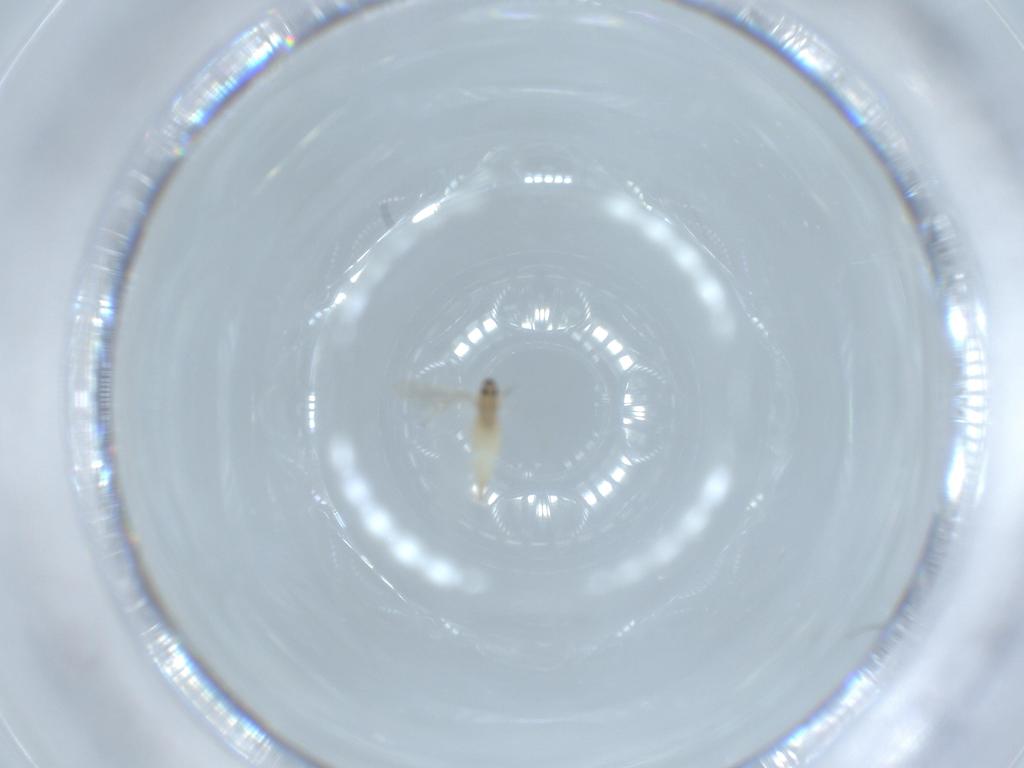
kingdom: Animalia
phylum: Arthropoda
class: Insecta
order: Diptera
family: Cecidomyiidae
